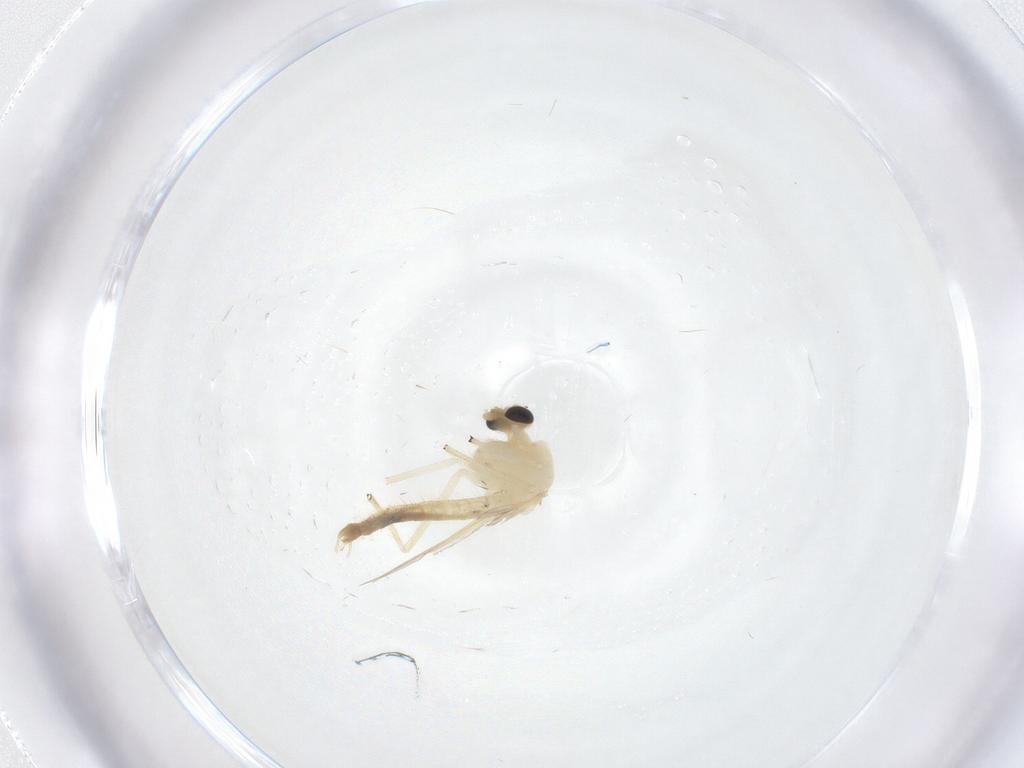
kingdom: Animalia
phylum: Arthropoda
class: Insecta
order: Diptera
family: Chironomidae
